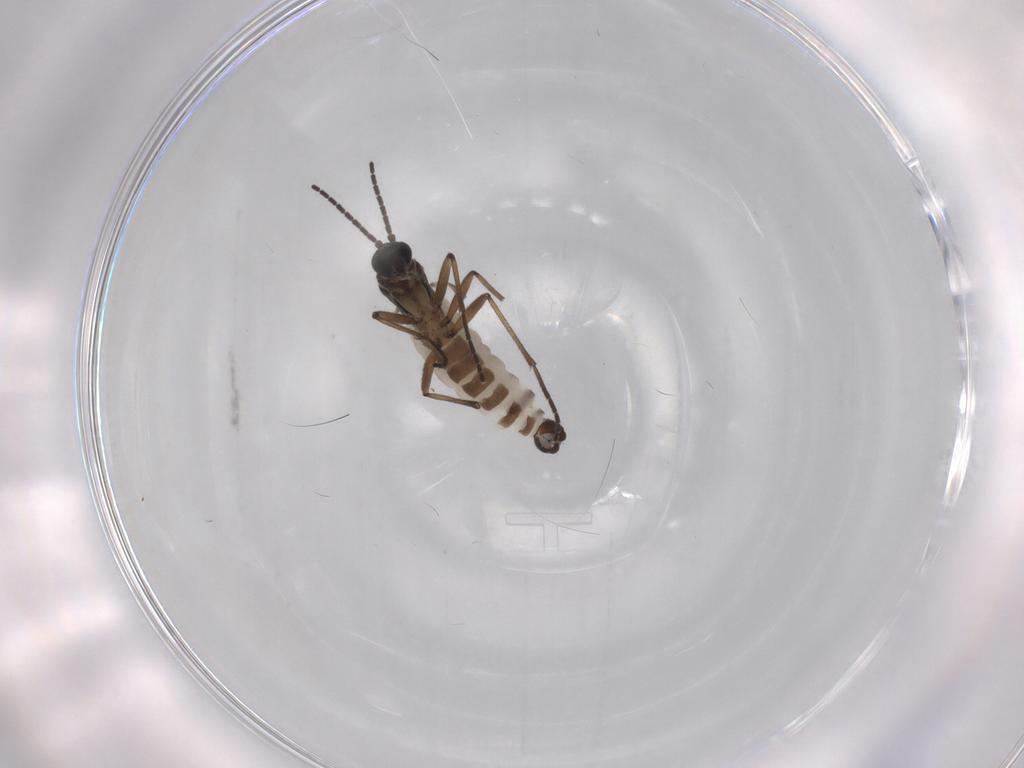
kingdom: Animalia
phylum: Arthropoda
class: Insecta
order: Diptera
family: Sciaridae
